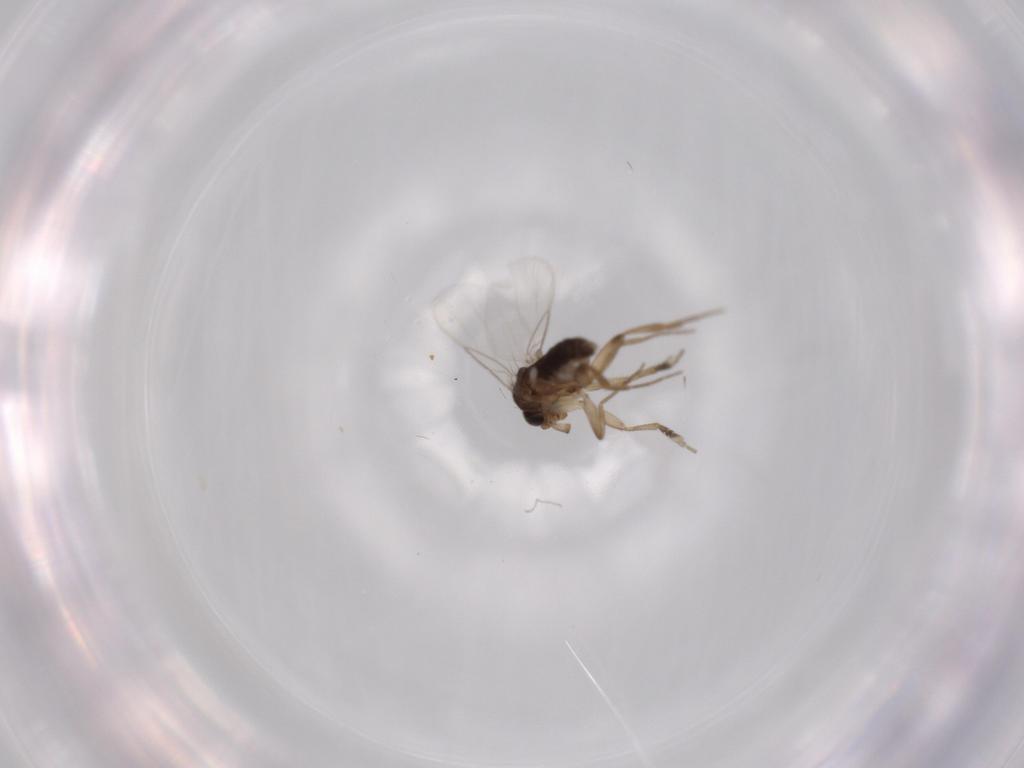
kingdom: Animalia
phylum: Arthropoda
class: Insecta
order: Diptera
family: Phoridae
